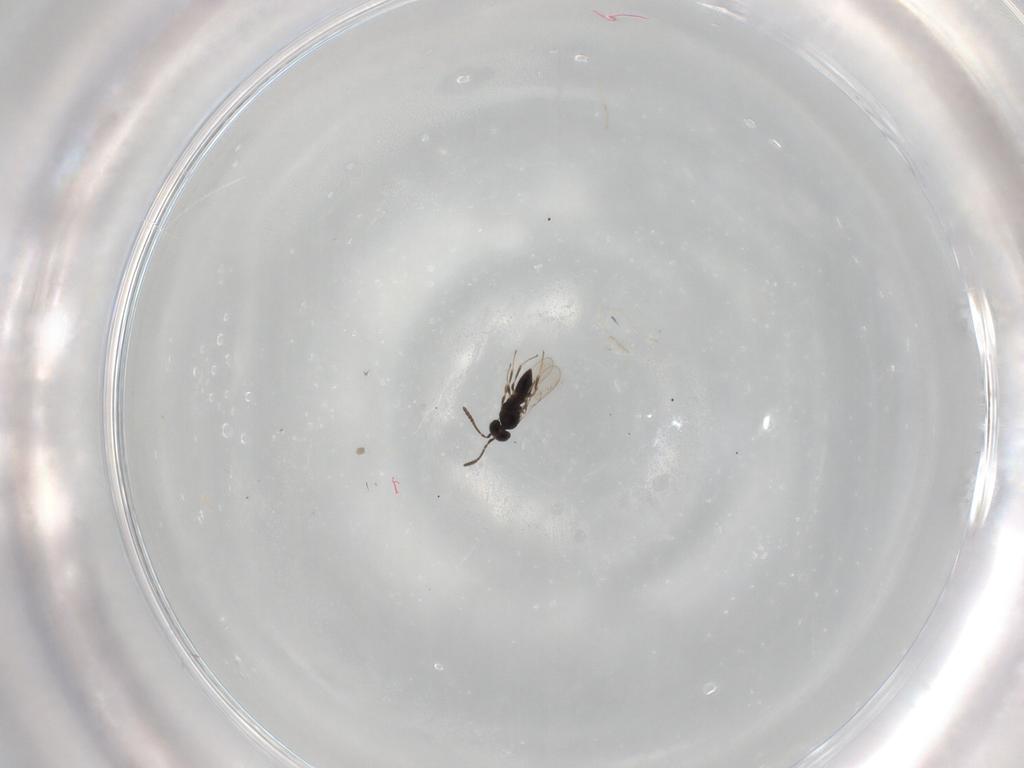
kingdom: Animalia
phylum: Arthropoda
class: Insecta
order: Hymenoptera
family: Scelionidae
